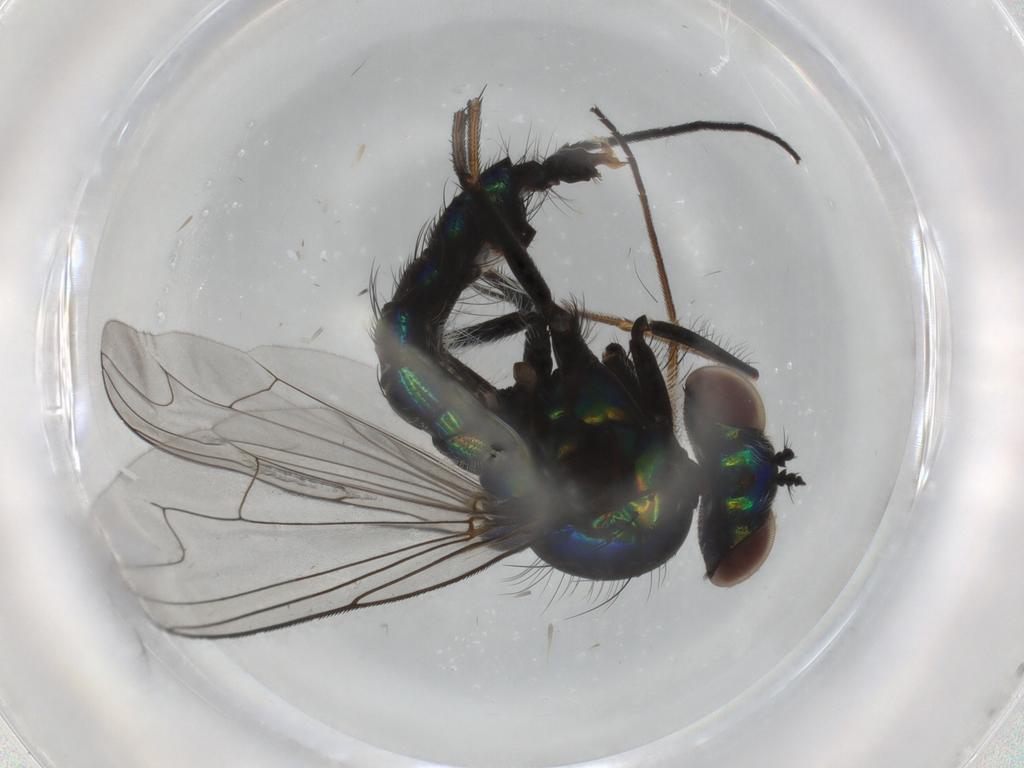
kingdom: Animalia
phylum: Arthropoda
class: Insecta
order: Diptera
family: Dolichopodidae
